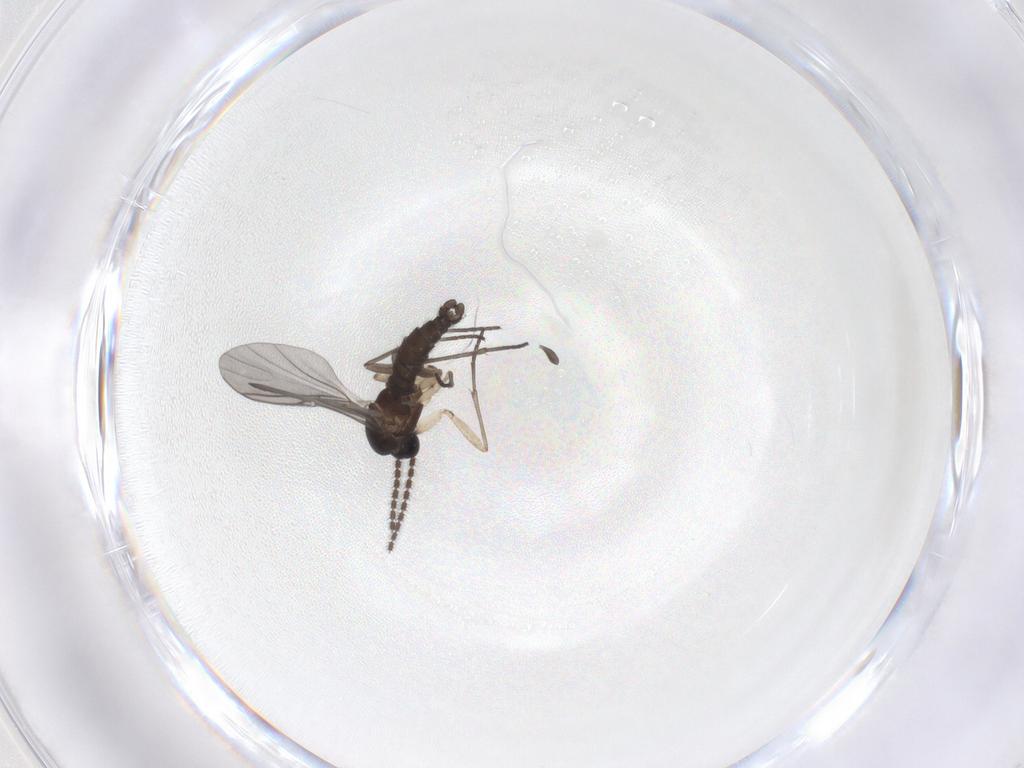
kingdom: Animalia
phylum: Arthropoda
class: Insecta
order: Diptera
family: Sciaridae
